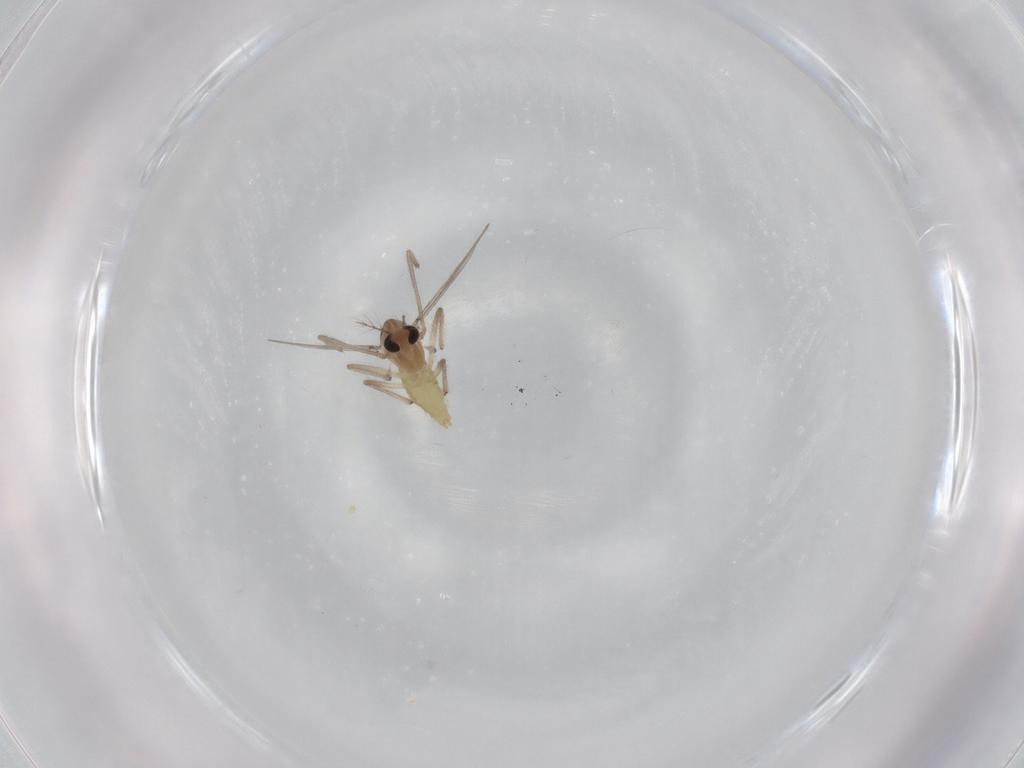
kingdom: Animalia
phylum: Arthropoda
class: Insecta
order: Diptera
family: Chironomidae
